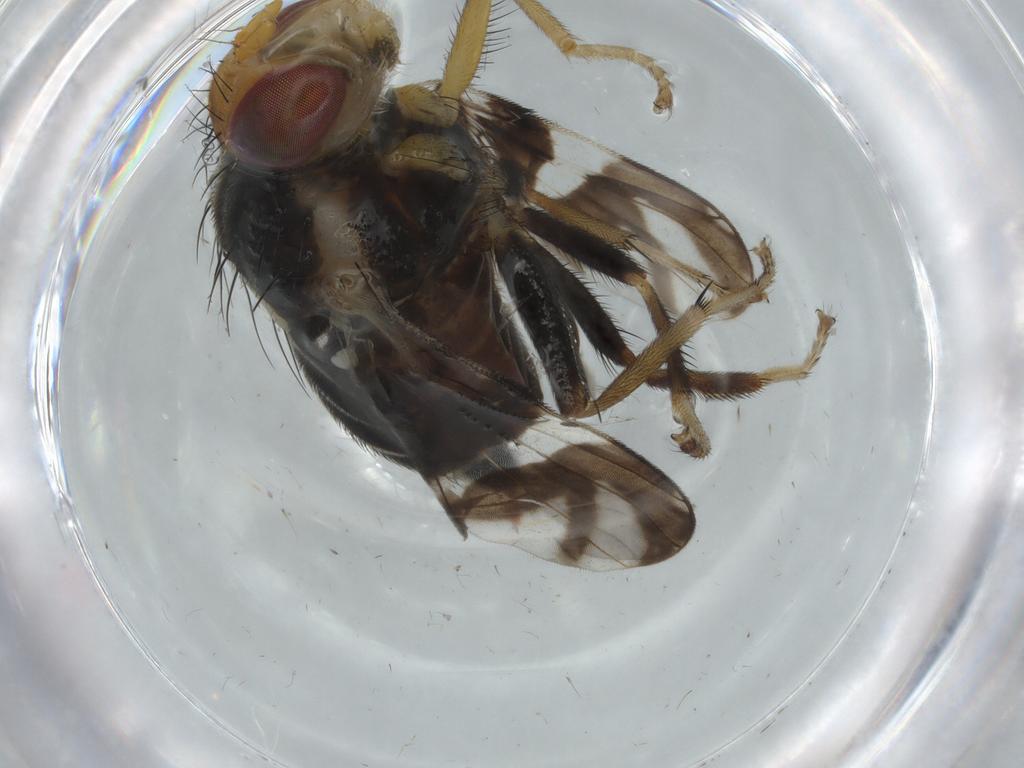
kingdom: Animalia
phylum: Arthropoda
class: Insecta
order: Diptera
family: Tephritidae
